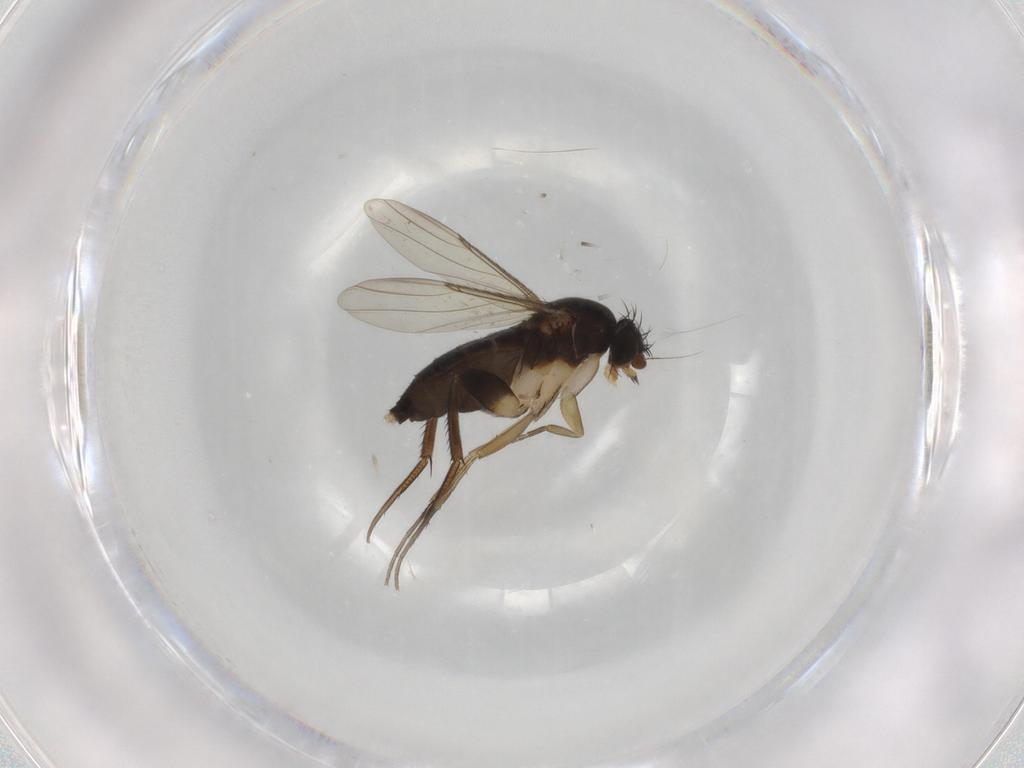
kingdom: Animalia
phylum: Arthropoda
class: Insecta
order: Diptera
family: Phoridae
